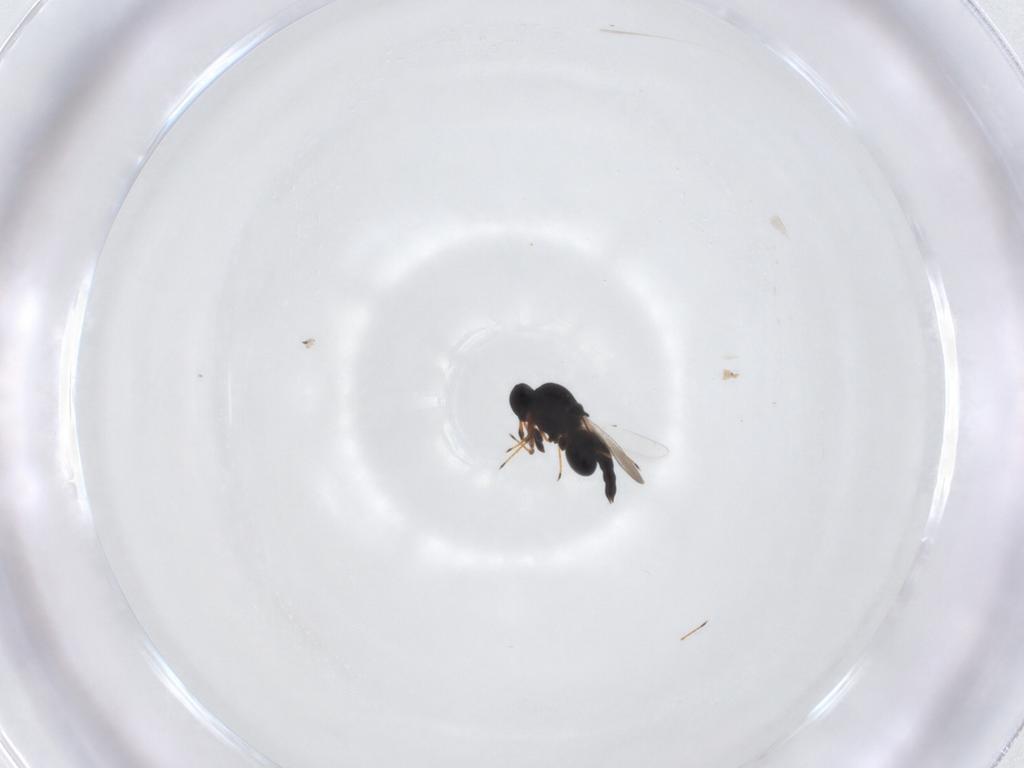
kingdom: Animalia
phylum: Arthropoda
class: Insecta
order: Hymenoptera
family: Platygastridae
